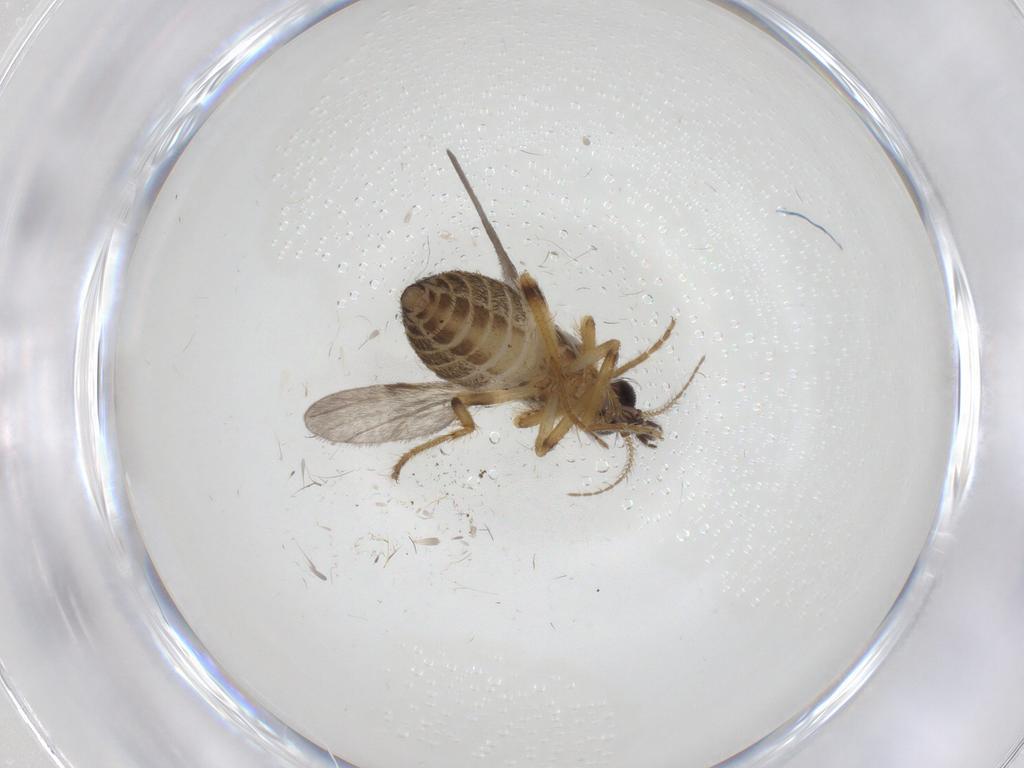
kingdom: Animalia
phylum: Arthropoda
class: Insecta
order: Diptera
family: Ceratopogonidae
